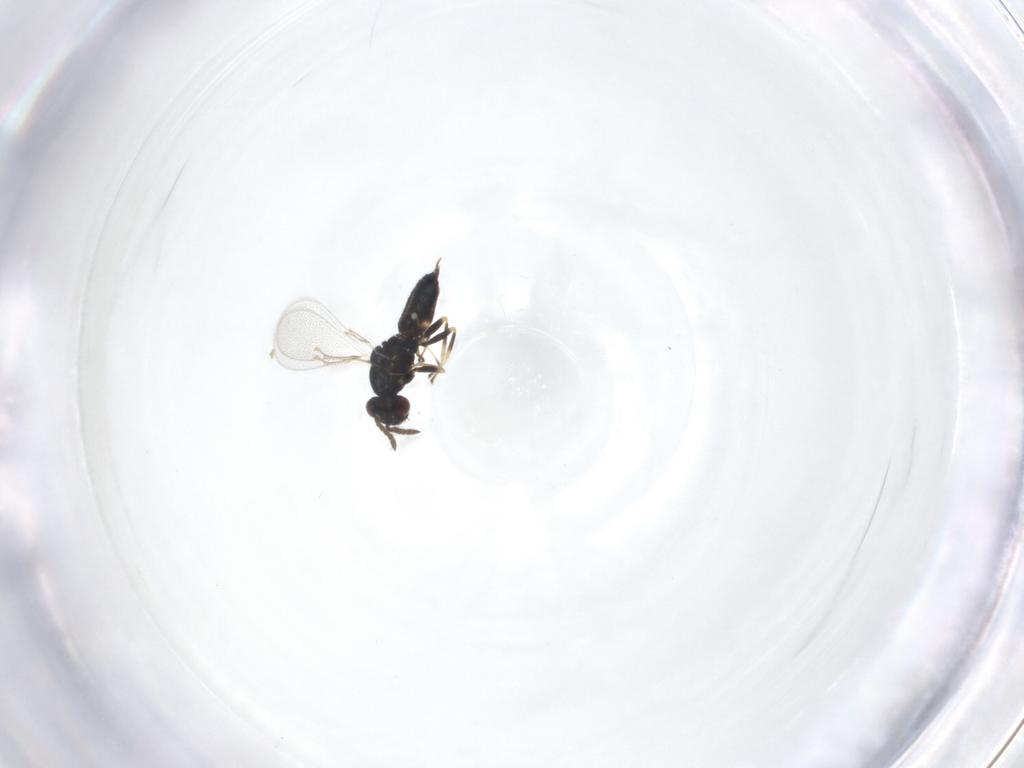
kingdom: Animalia
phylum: Arthropoda
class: Insecta
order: Hymenoptera
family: Eulophidae
